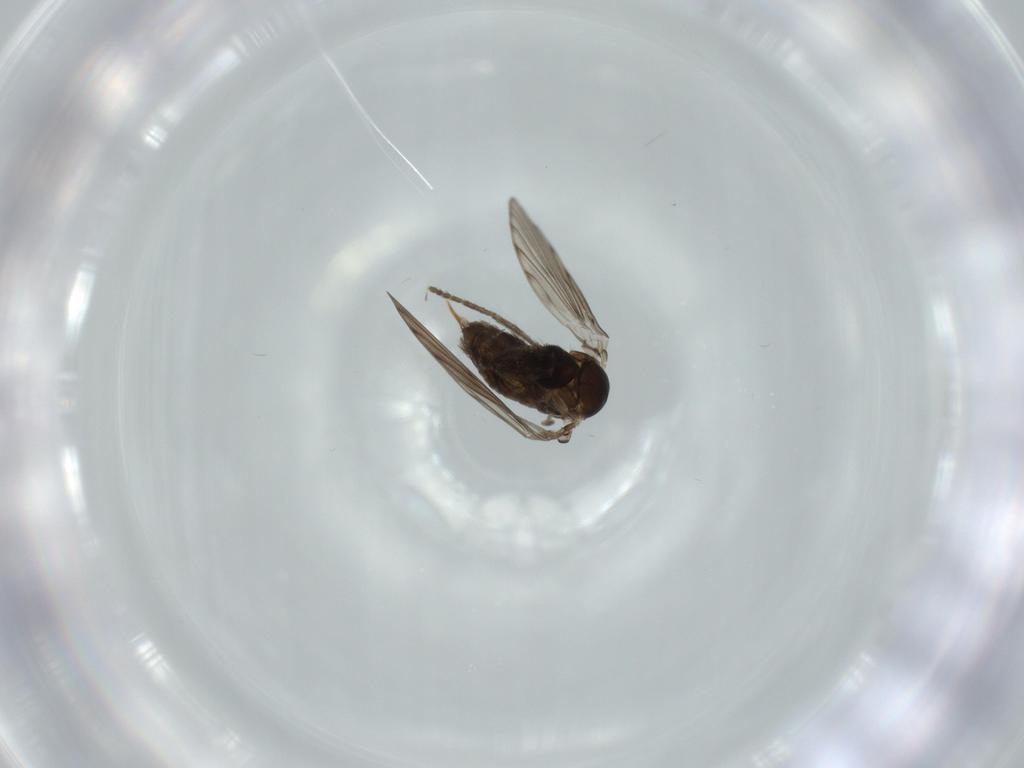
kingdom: Animalia
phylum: Arthropoda
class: Insecta
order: Diptera
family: Psychodidae
